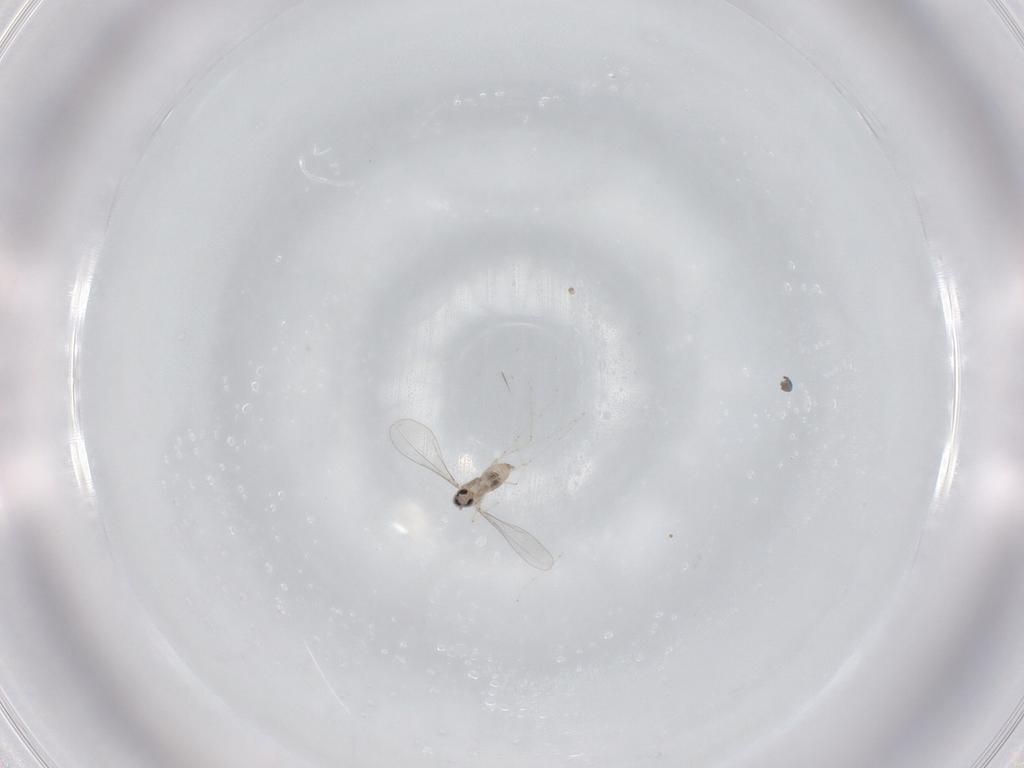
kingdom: Animalia
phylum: Arthropoda
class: Insecta
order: Diptera
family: Cecidomyiidae
